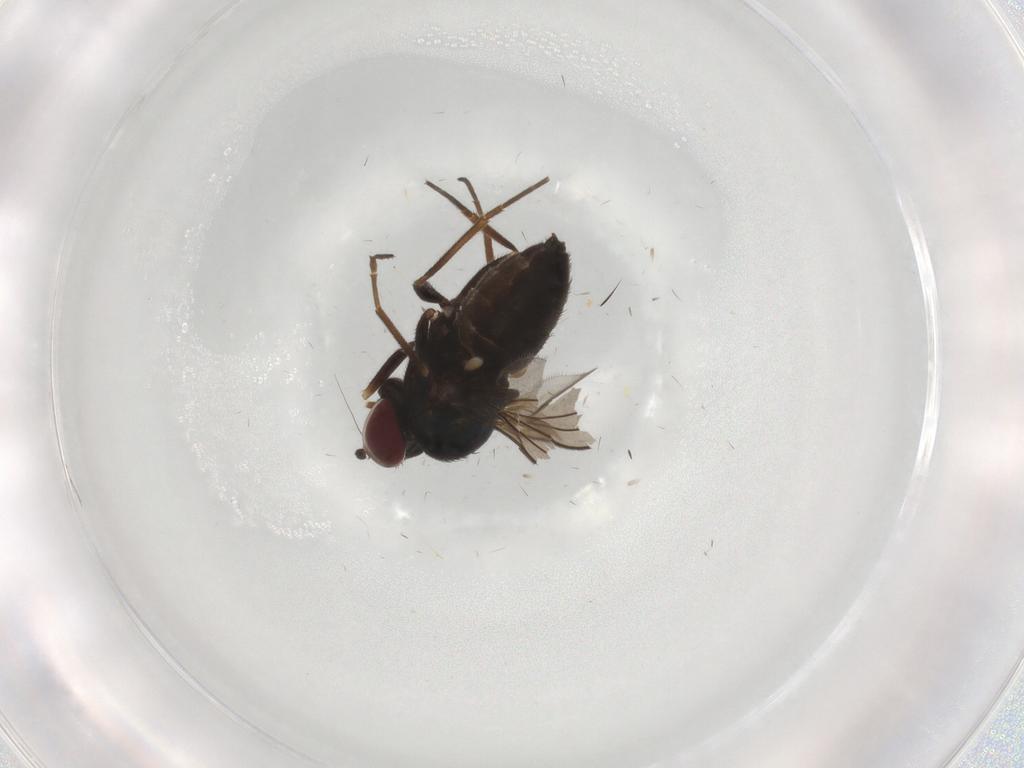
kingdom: Animalia
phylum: Arthropoda
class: Insecta
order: Diptera
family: Dolichopodidae
